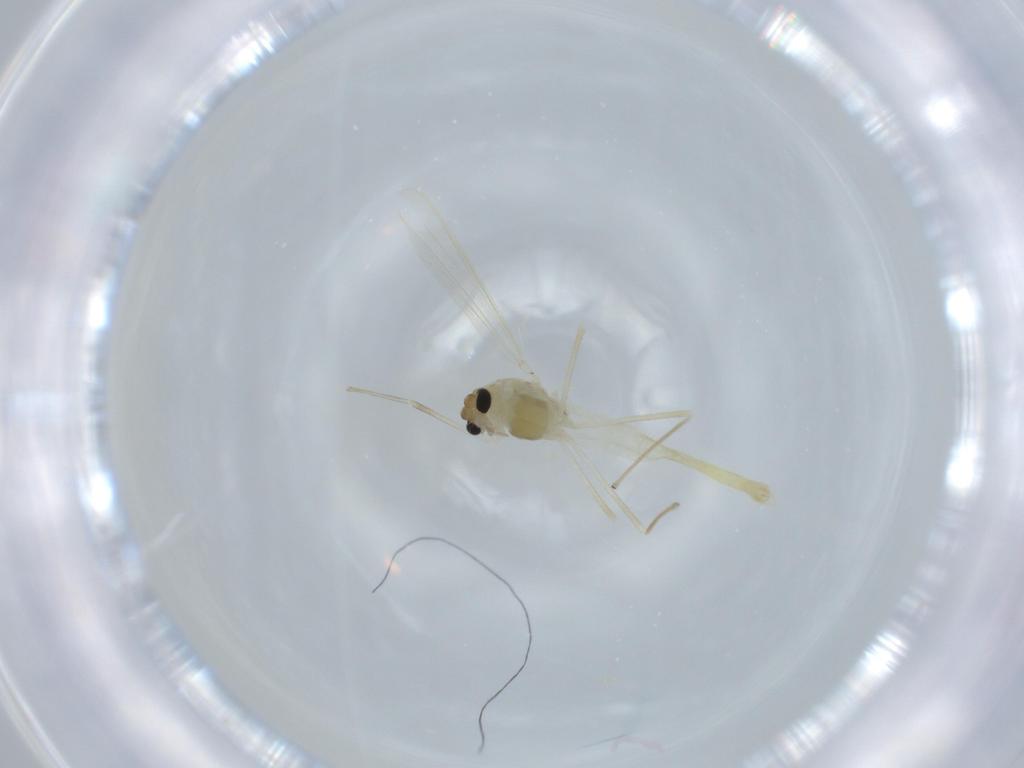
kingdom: Animalia
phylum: Arthropoda
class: Insecta
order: Diptera
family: Chironomidae
